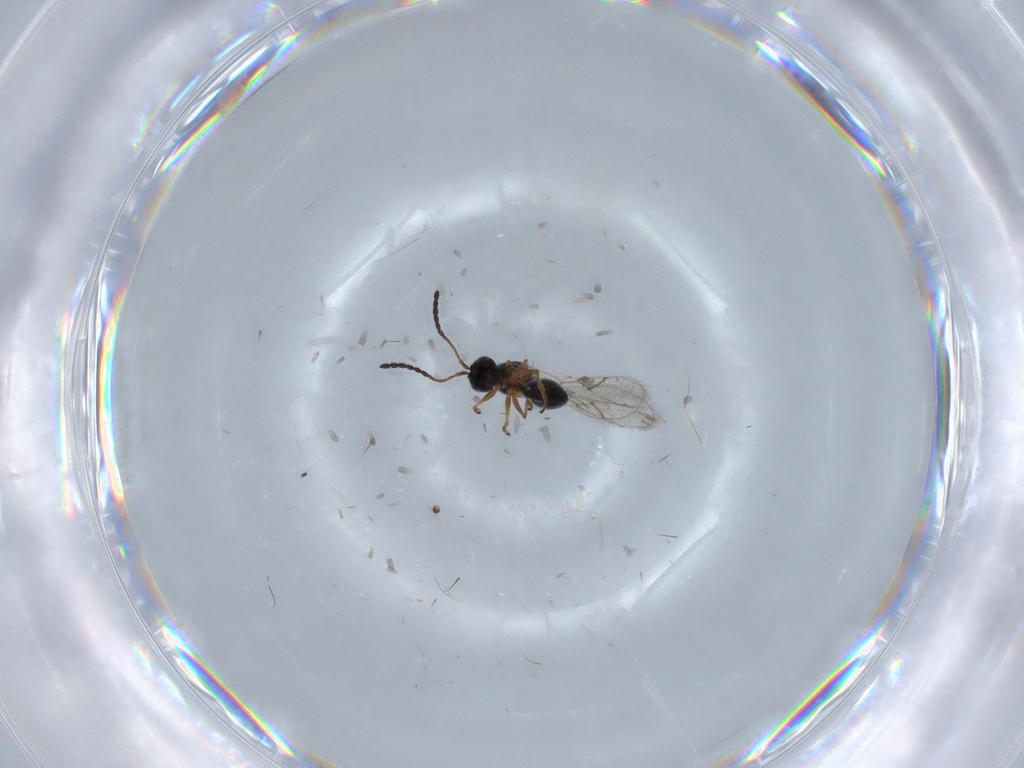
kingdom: Animalia
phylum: Arthropoda
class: Insecta
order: Hymenoptera
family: Figitidae
